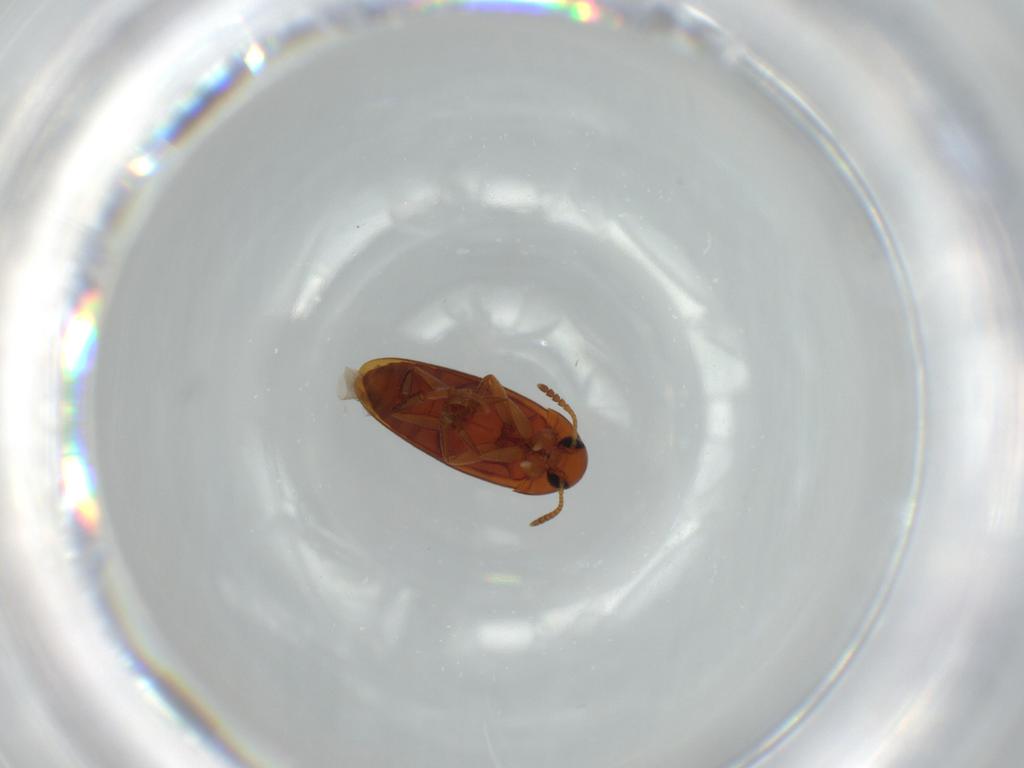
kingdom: Animalia
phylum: Arthropoda
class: Insecta
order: Coleoptera
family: Scraptiidae
